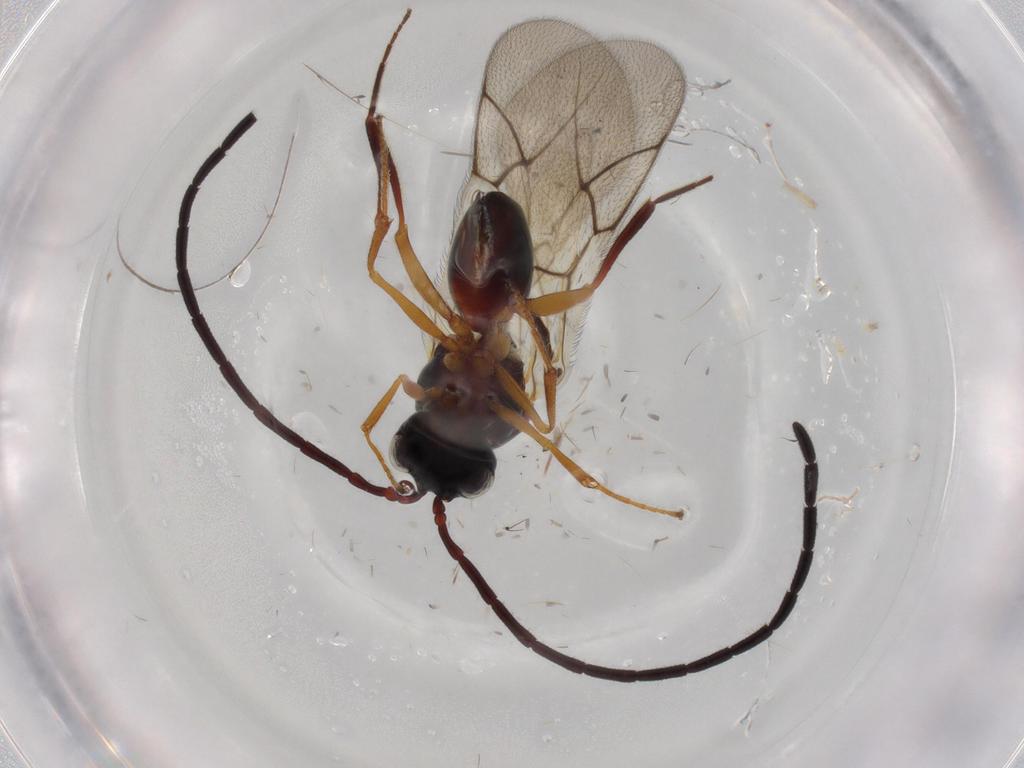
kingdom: Animalia
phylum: Arthropoda
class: Insecta
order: Hymenoptera
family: Figitidae
